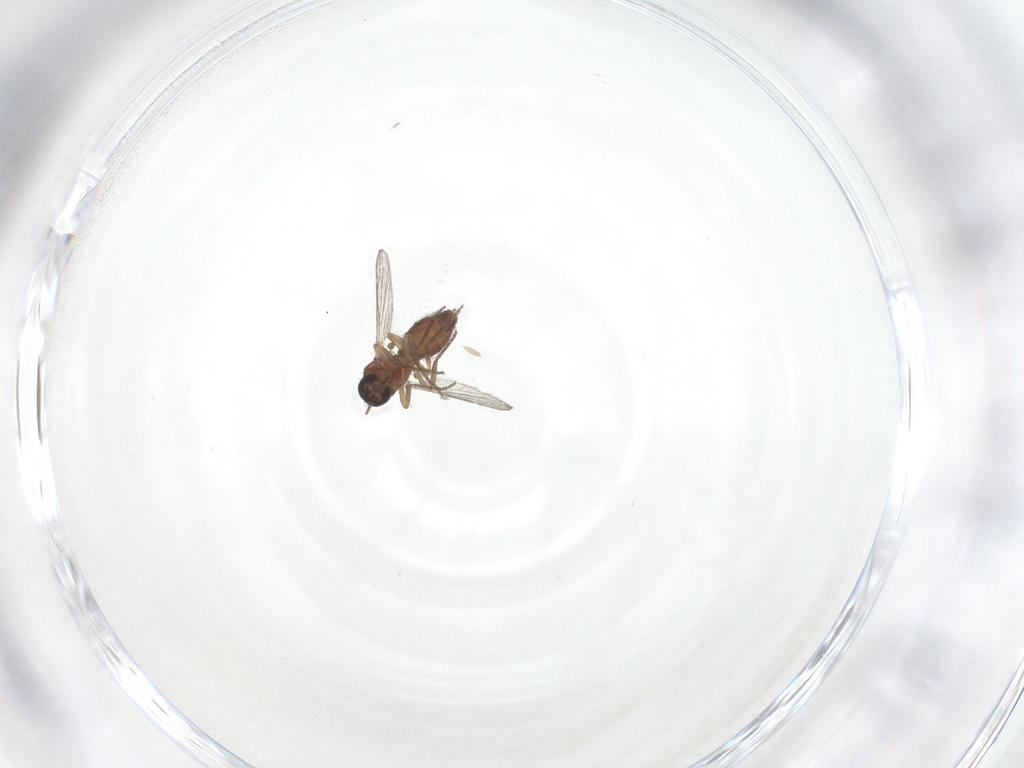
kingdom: Animalia
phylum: Arthropoda
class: Insecta
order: Diptera
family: Ceratopogonidae
